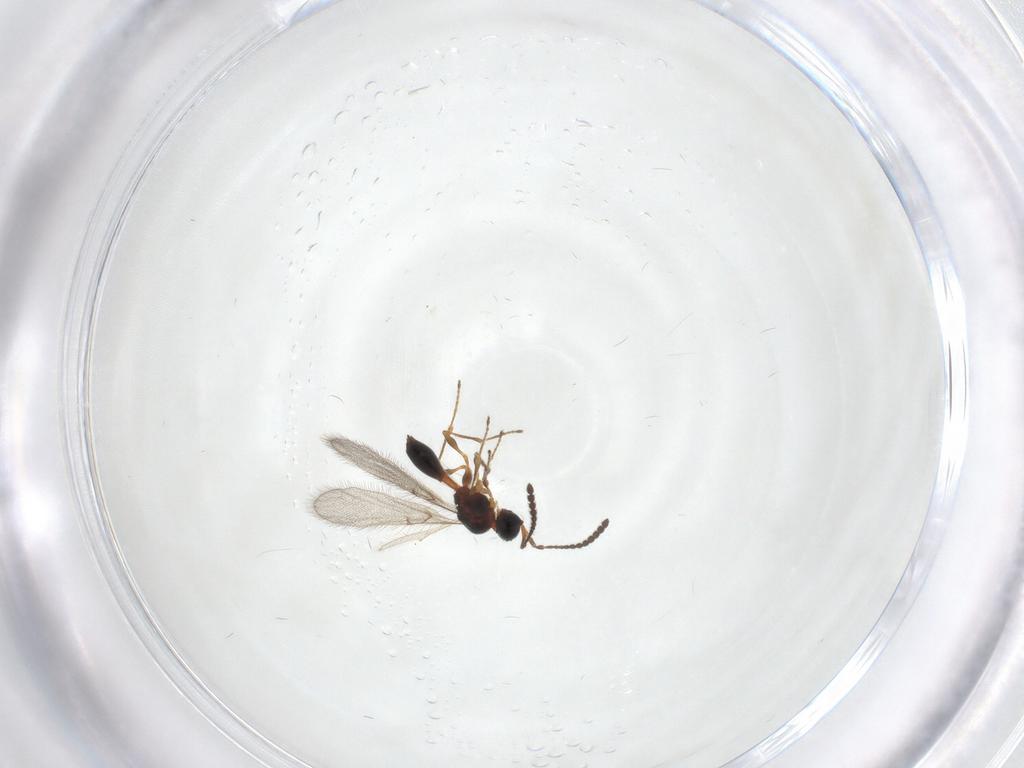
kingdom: Animalia
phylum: Arthropoda
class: Insecta
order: Hymenoptera
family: Diapriidae
